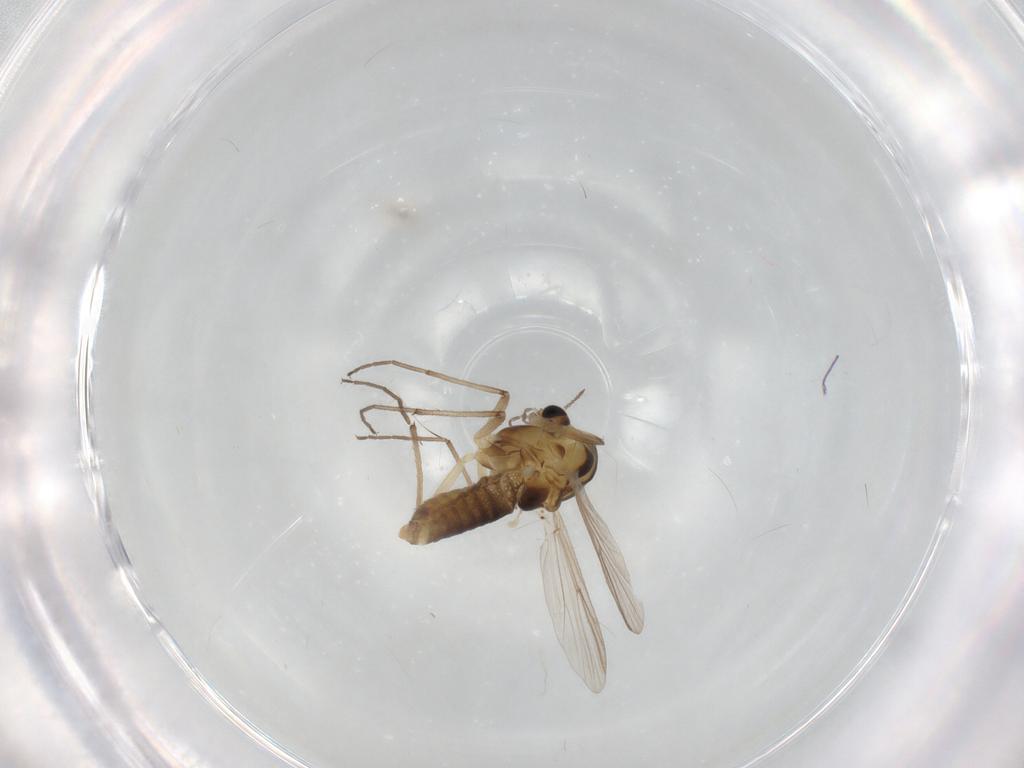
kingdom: Animalia
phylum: Arthropoda
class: Insecta
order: Diptera
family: Chironomidae
